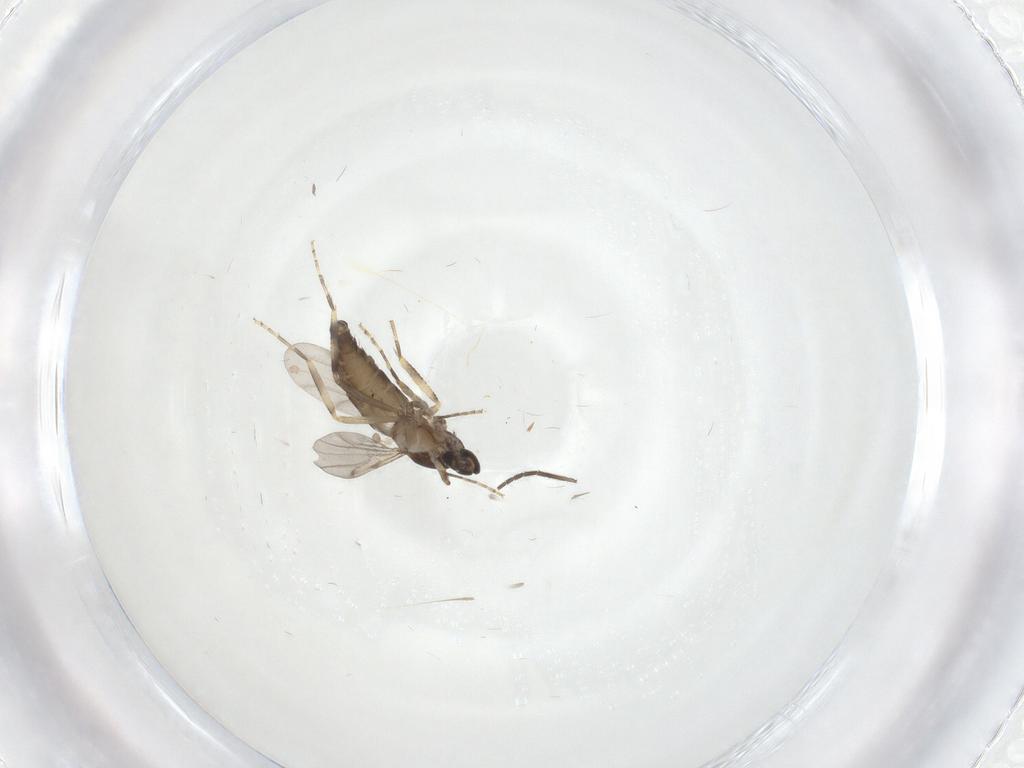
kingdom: Animalia
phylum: Arthropoda
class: Insecta
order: Diptera
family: Ceratopogonidae
